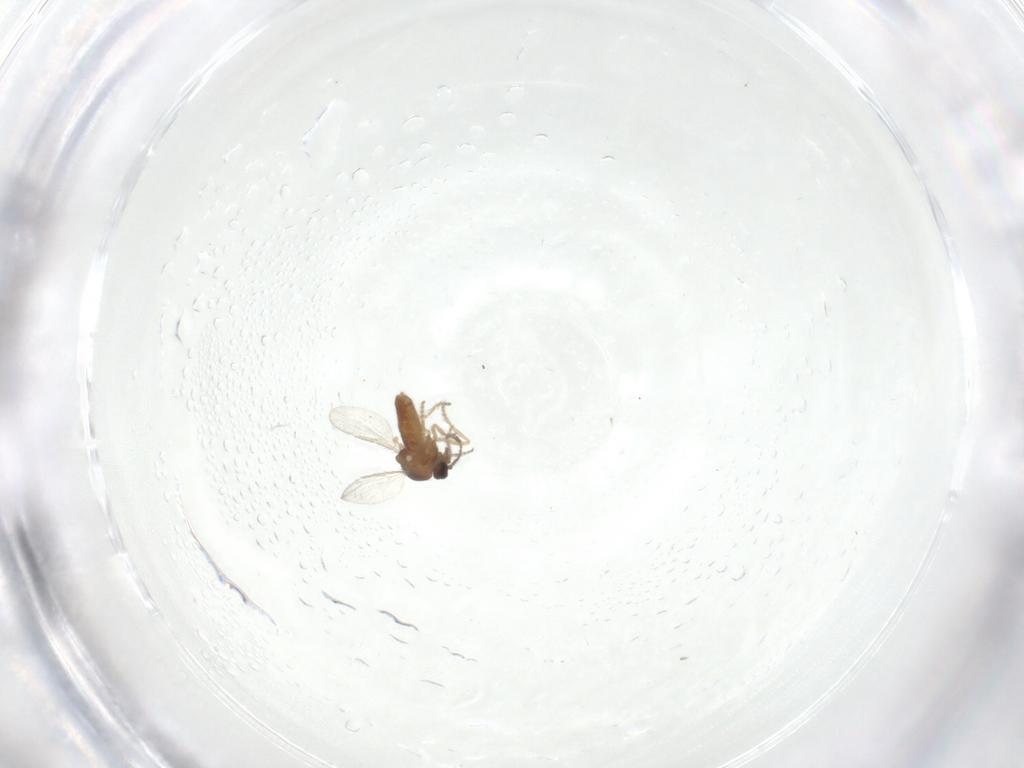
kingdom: Animalia
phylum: Arthropoda
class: Insecta
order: Diptera
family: Ceratopogonidae
